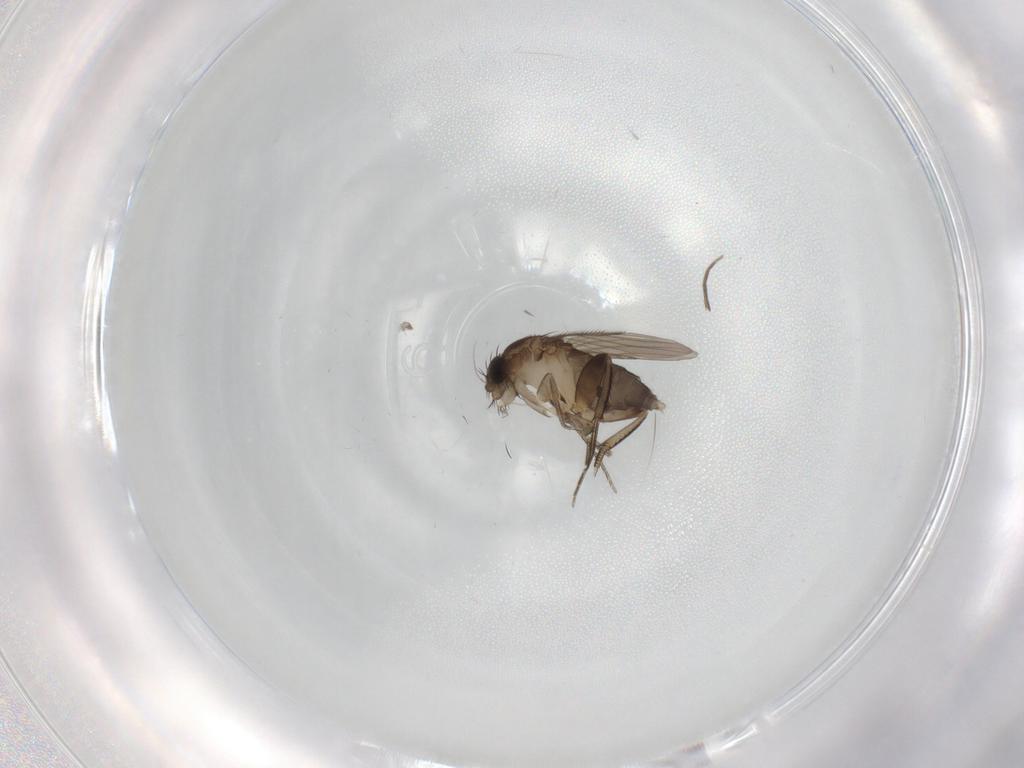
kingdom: Animalia
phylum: Arthropoda
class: Insecta
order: Diptera
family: Phoridae
